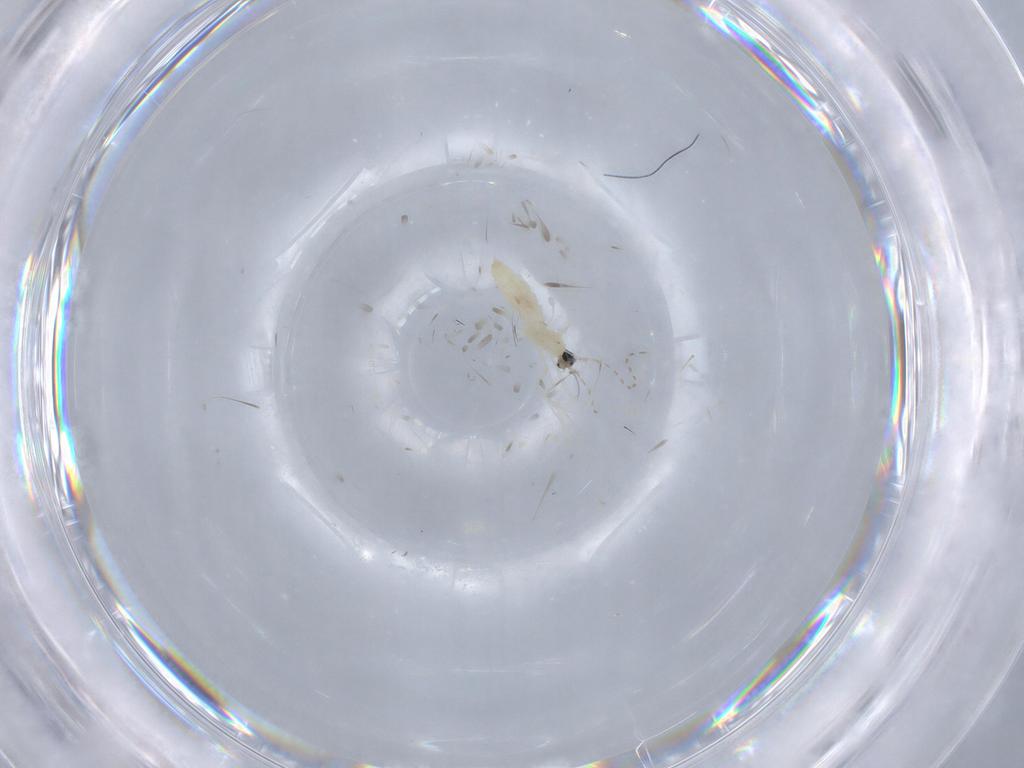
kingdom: Animalia
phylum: Arthropoda
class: Insecta
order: Diptera
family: Cecidomyiidae
